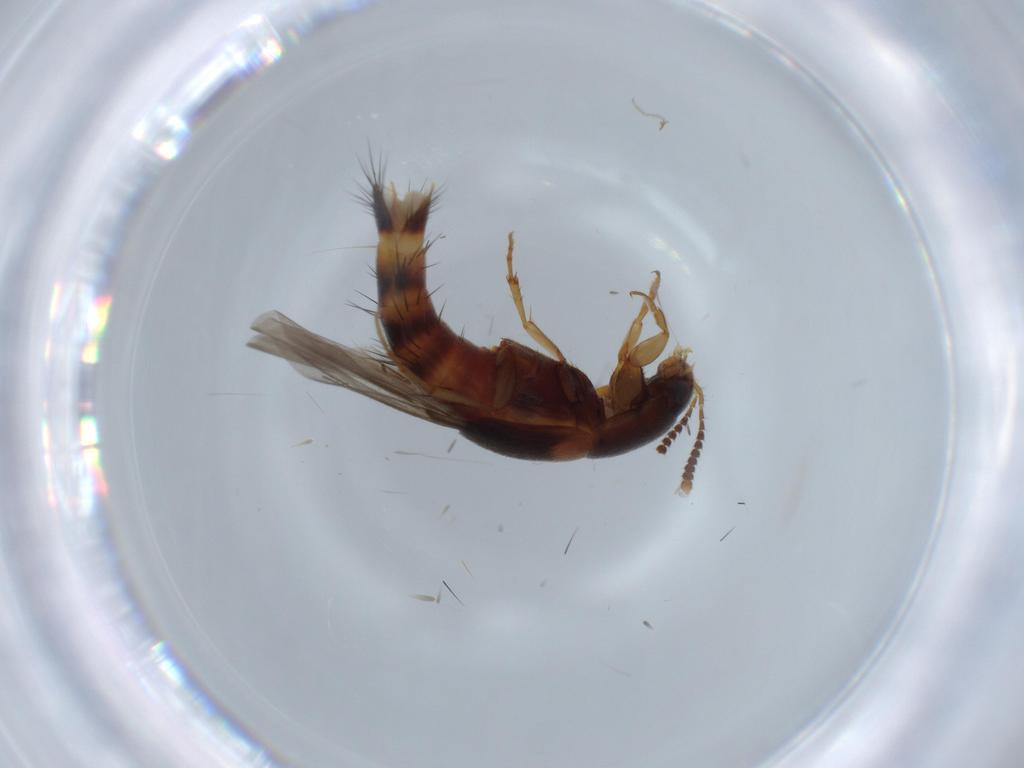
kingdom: Animalia
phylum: Arthropoda
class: Insecta
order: Coleoptera
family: Staphylinidae
